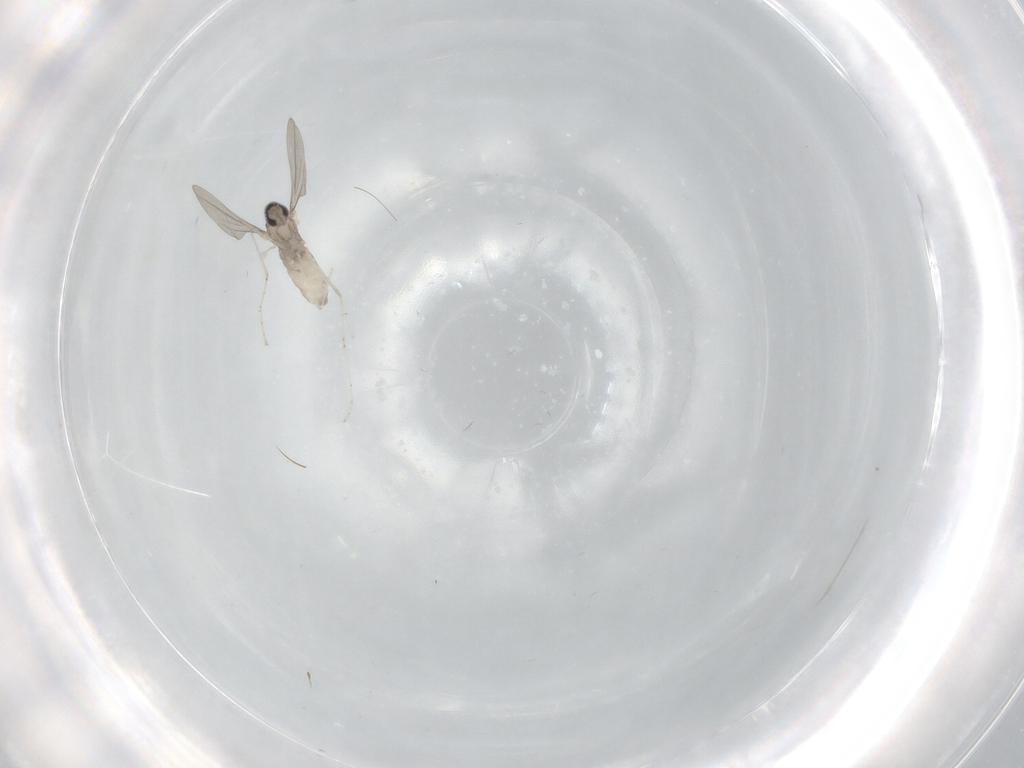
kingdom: Animalia
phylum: Arthropoda
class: Insecta
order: Diptera
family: Cecidomyiidae
